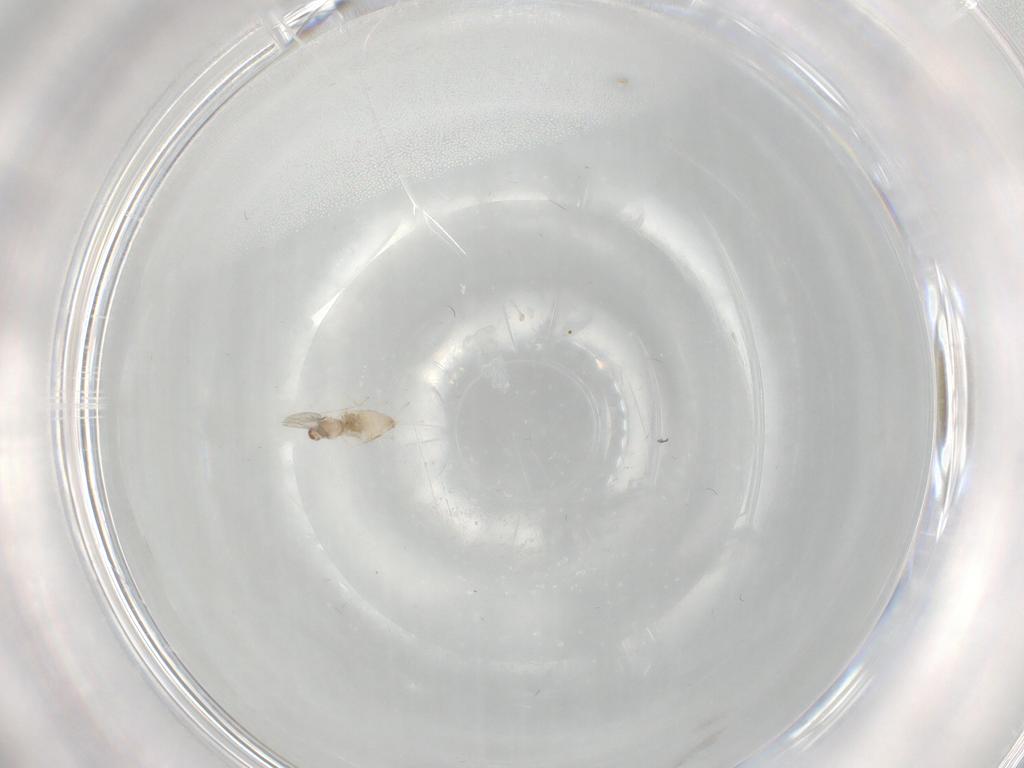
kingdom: Animalia
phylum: Arthropoda
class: Insecta
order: Diptera
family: Cecidomyiidae
